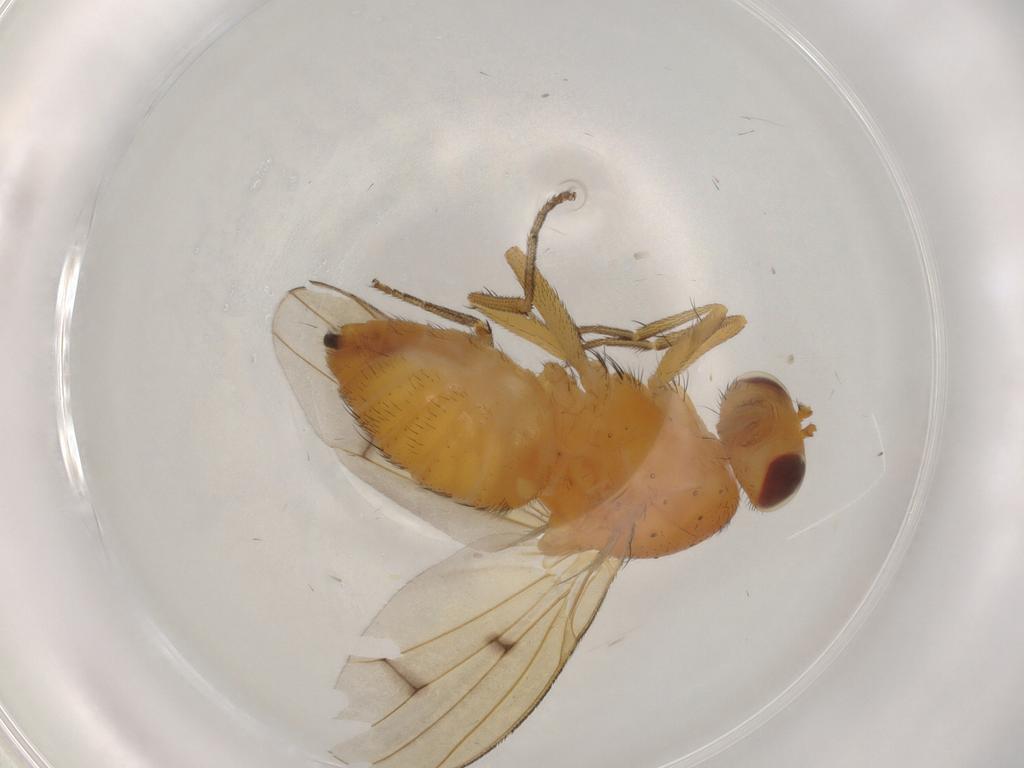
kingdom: Animalia
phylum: Arthropoda
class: Insecta
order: Diptera
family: Lauxaniidae
